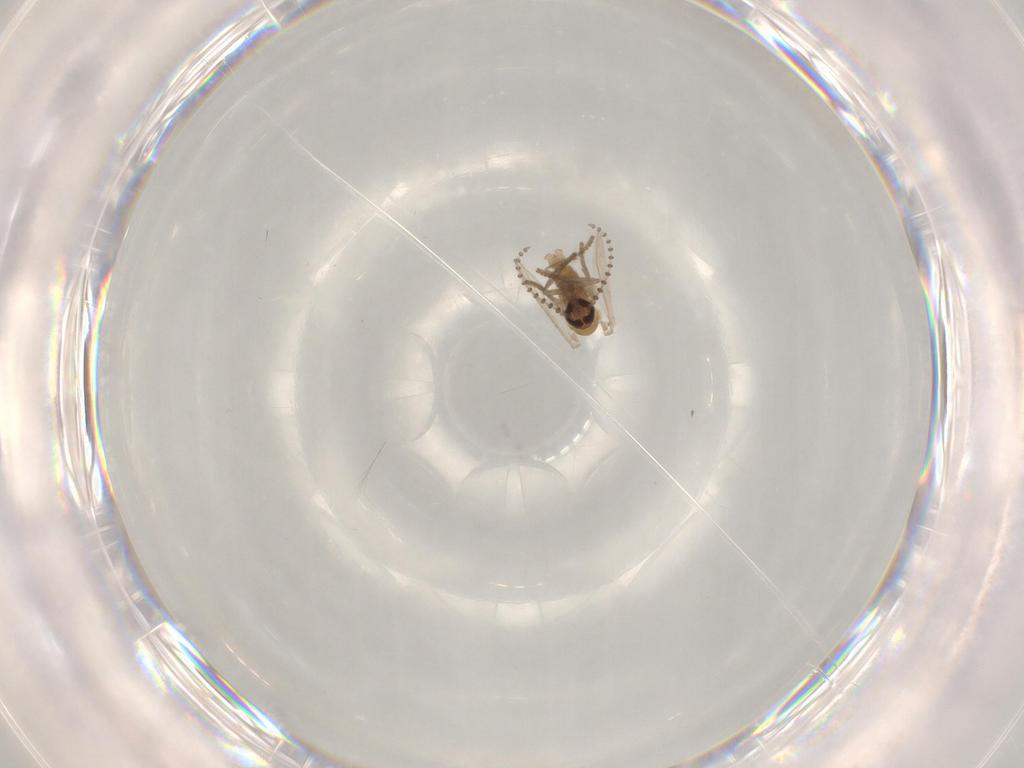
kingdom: Animalia
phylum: Arthropoda
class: Insecta
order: Diptera
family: Psychodidae
